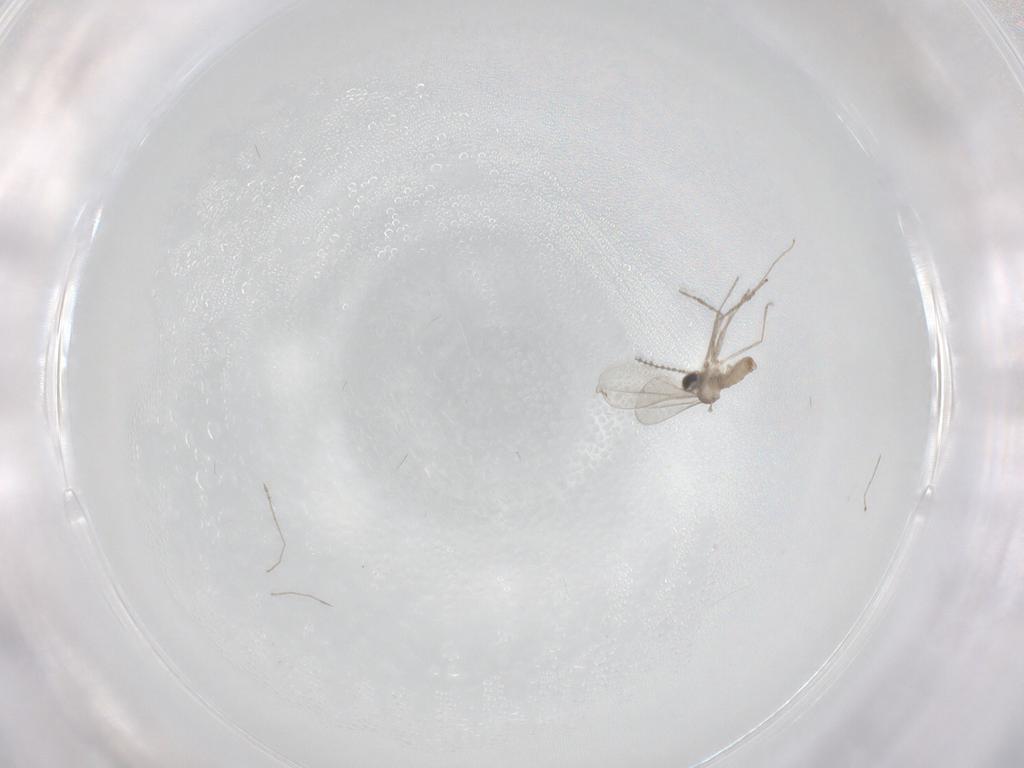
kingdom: Animalia
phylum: Arthropoda
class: Insecta
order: Diptera
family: Cecidomyiidae
